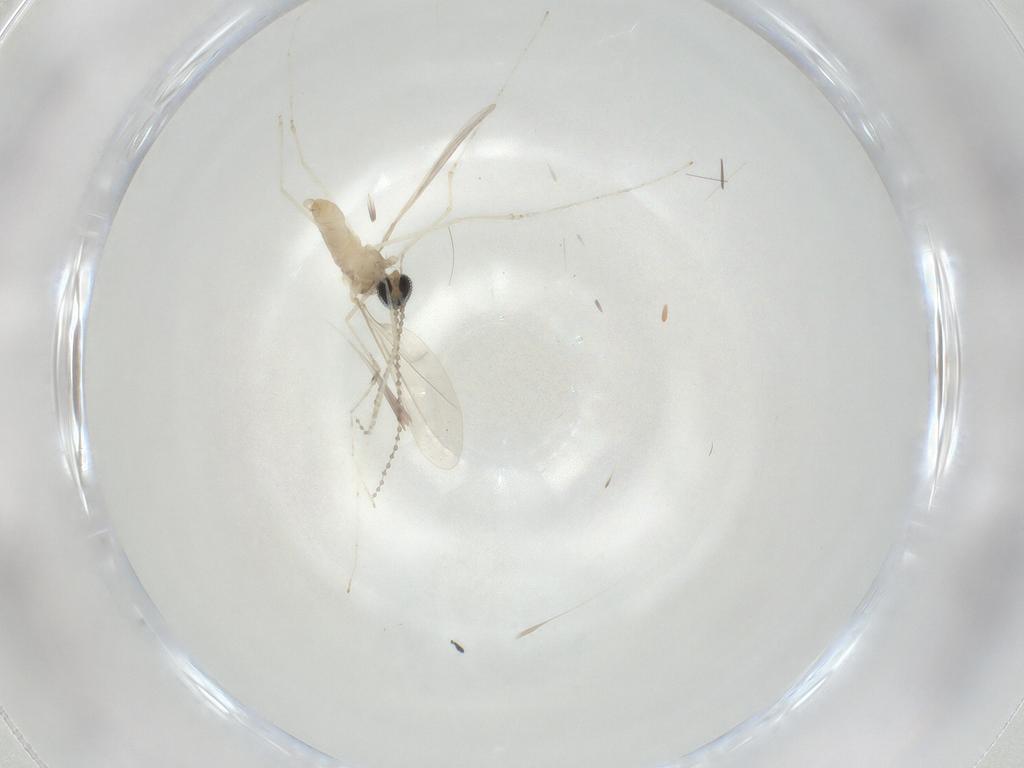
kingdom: Animalia
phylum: Arthropoda
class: Insecta
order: Diptera
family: Cecidomyiidae
